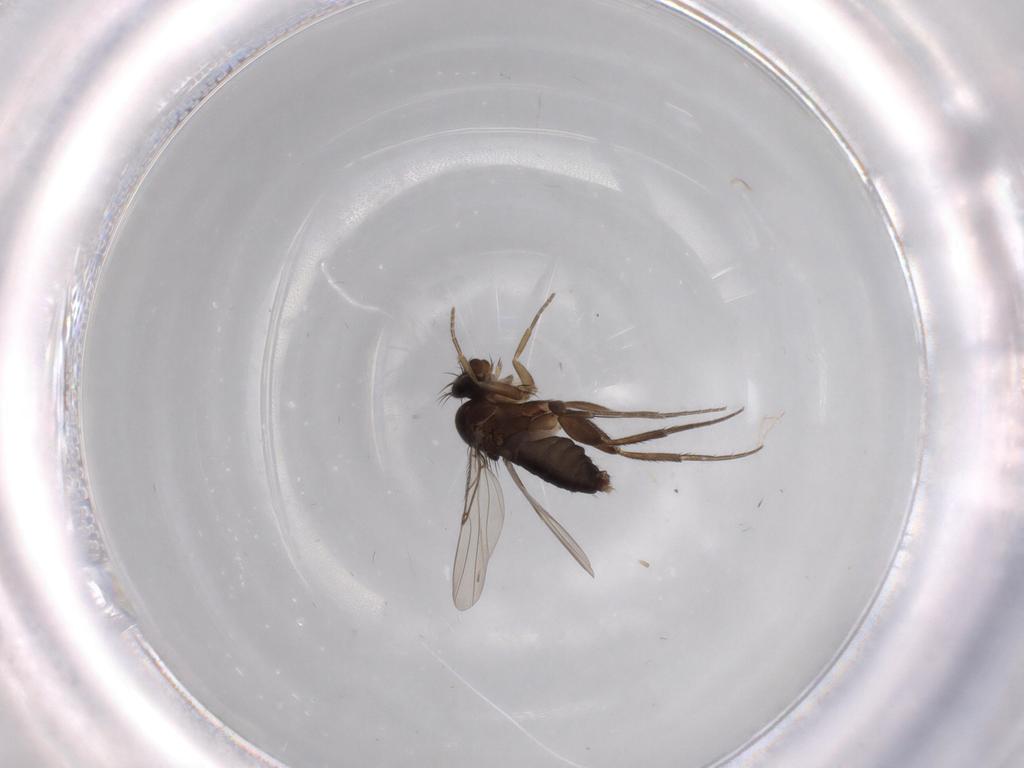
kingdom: Animalia
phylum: Arthropoda
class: Insecta
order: Diptera
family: Phoridae
